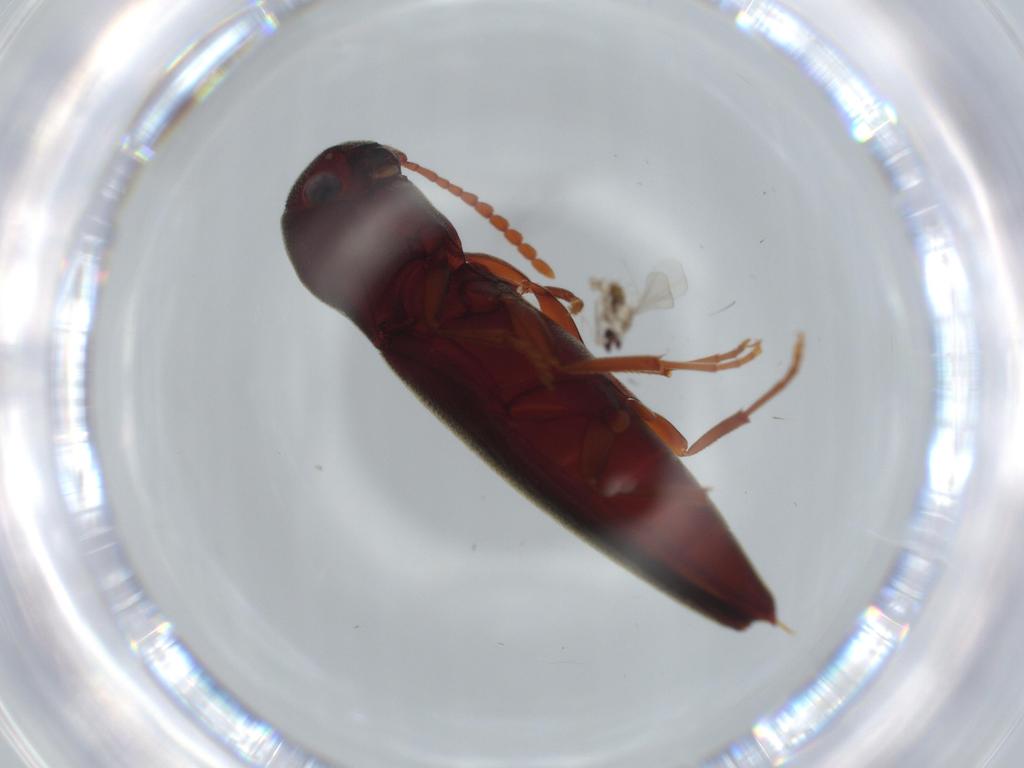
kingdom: Animalia
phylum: Arthropoda
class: Insecta
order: Coleoptera
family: Eucnemidae
